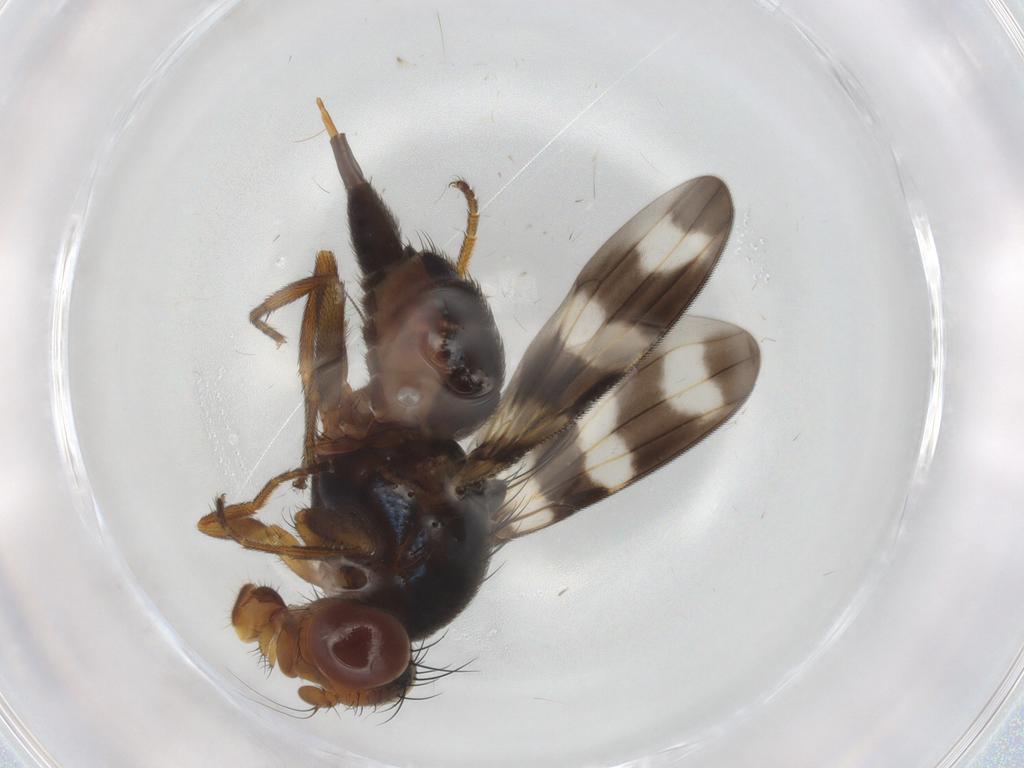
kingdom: Animalia
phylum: Arthropoda
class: Insecta
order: Diptera
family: Ulidiidae
